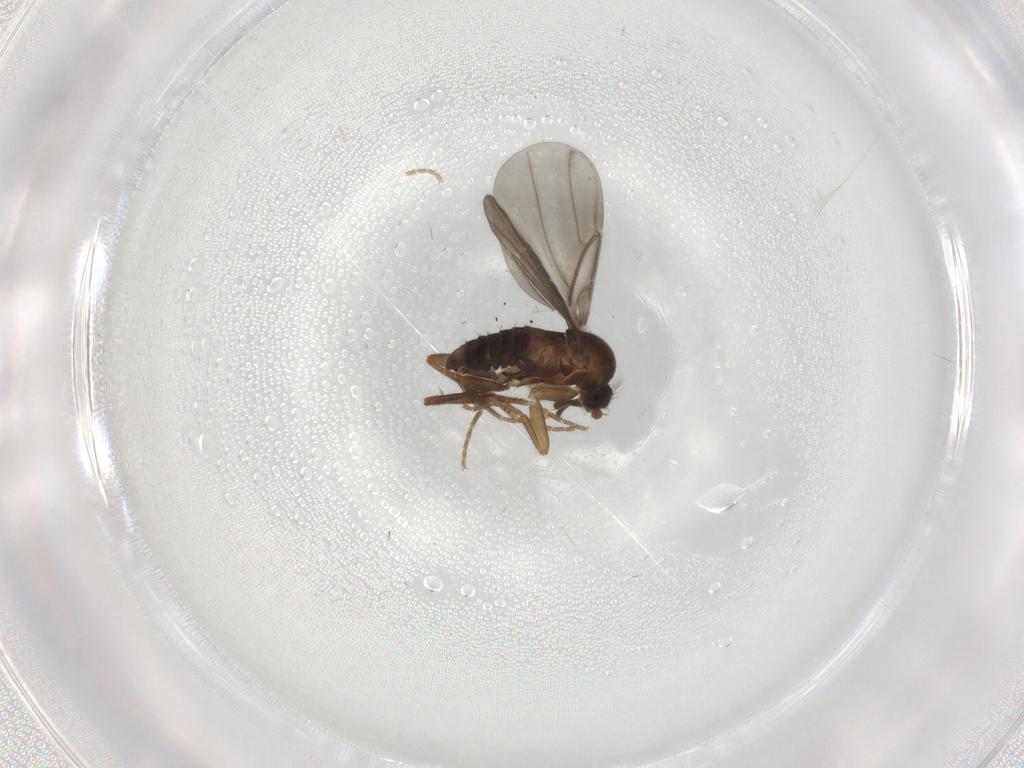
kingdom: Animalia
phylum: Arthropoda
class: Insecta
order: Diptera
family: Phoridae
